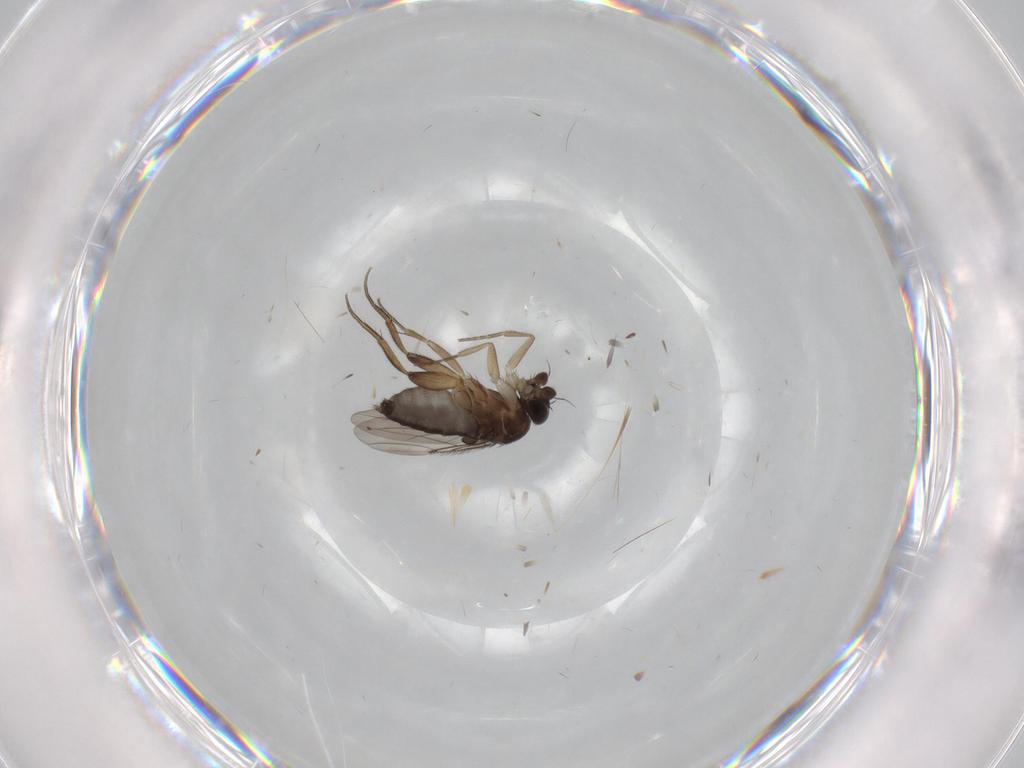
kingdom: Animalia
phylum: Arthropoda
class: Insecta
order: Diptera
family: Phoridae
